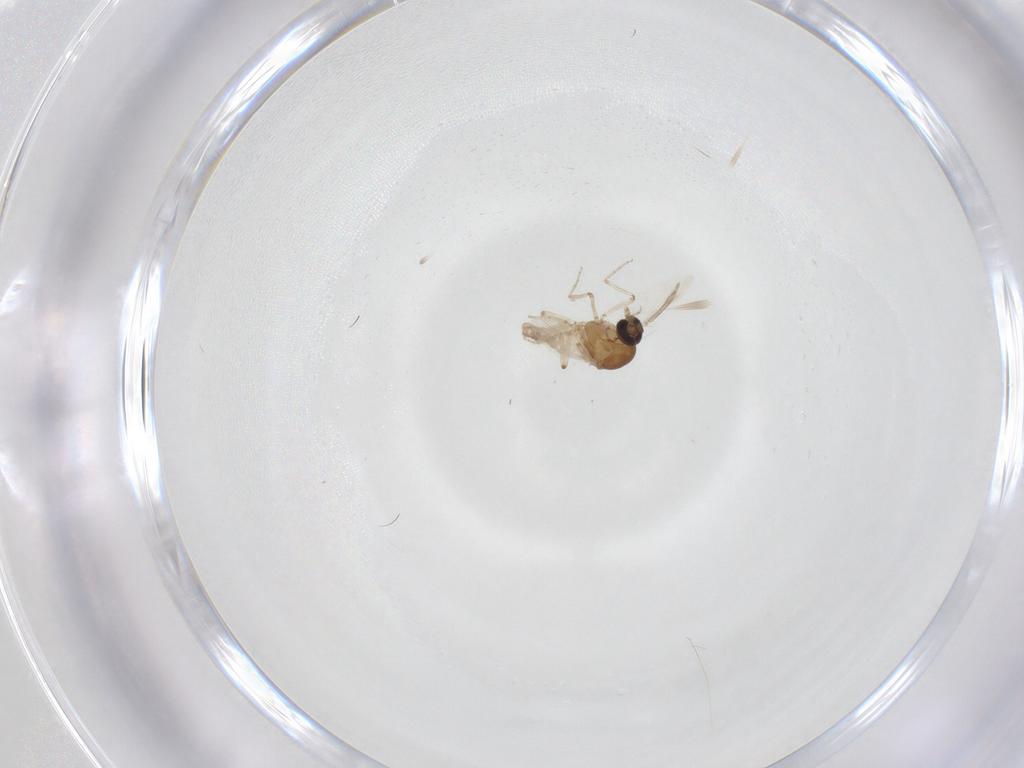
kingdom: Animalia
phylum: Arthropoda
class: Insecta
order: Diptera
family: Ceratopogonidae
